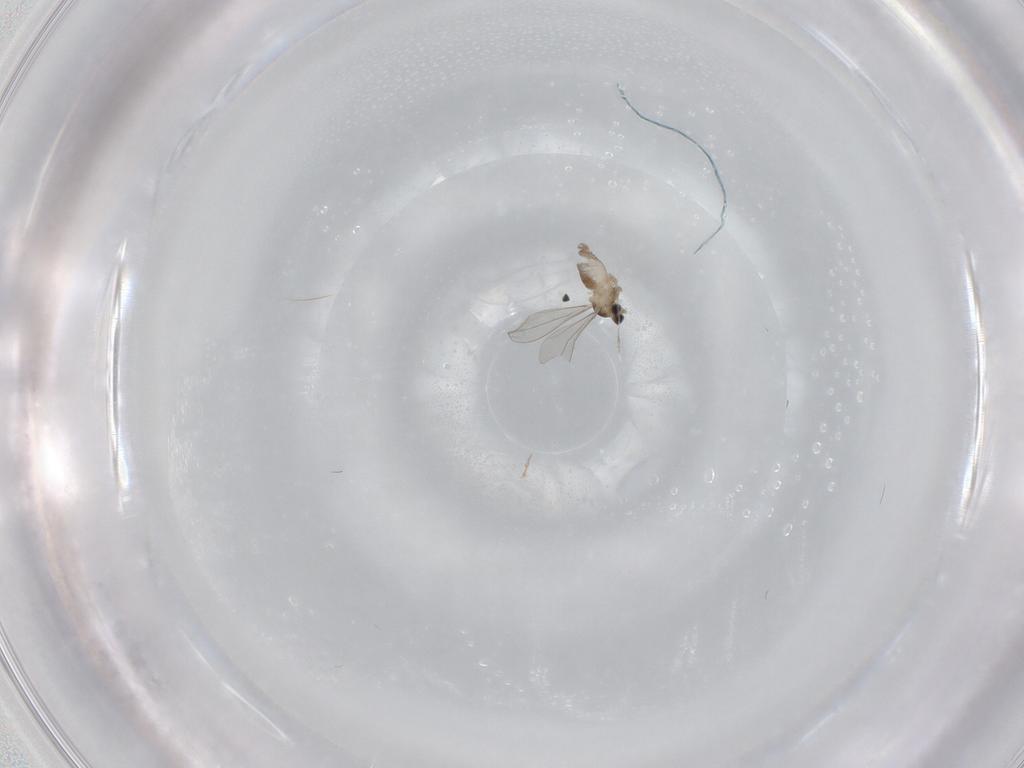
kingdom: Animalia
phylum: Arthropoda
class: Insecta
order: Diptera
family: Cecidomyiidae
